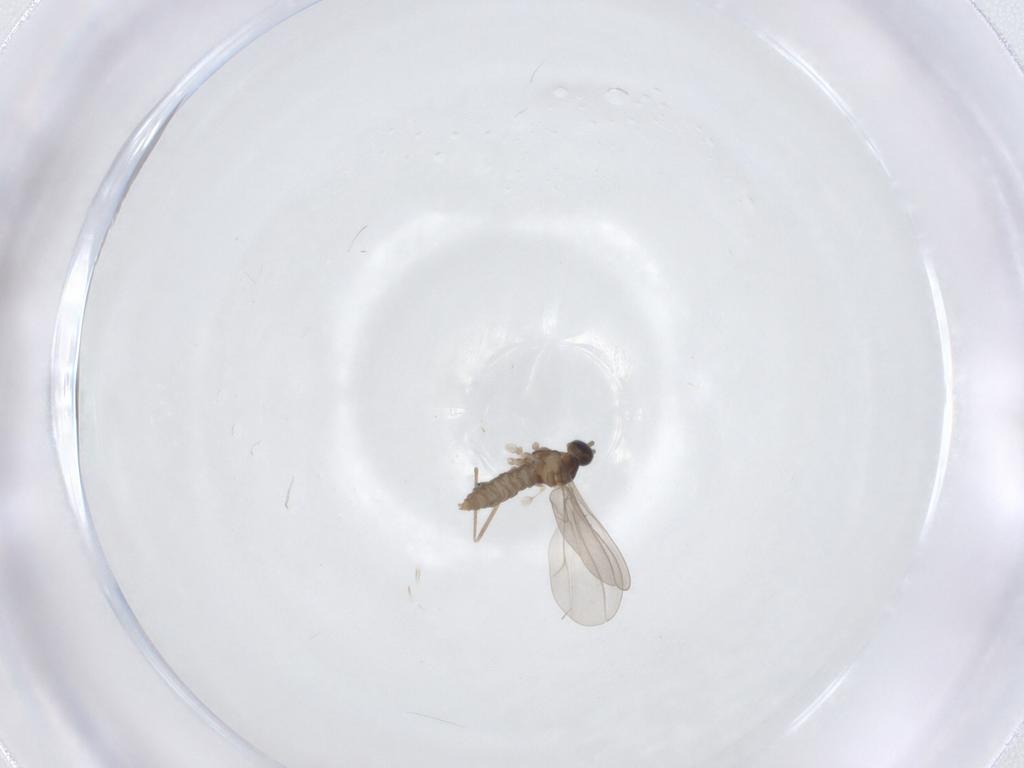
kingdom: Animalia
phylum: Arthropoda
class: Insecta
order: Diptera
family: Cecidomyiidae
